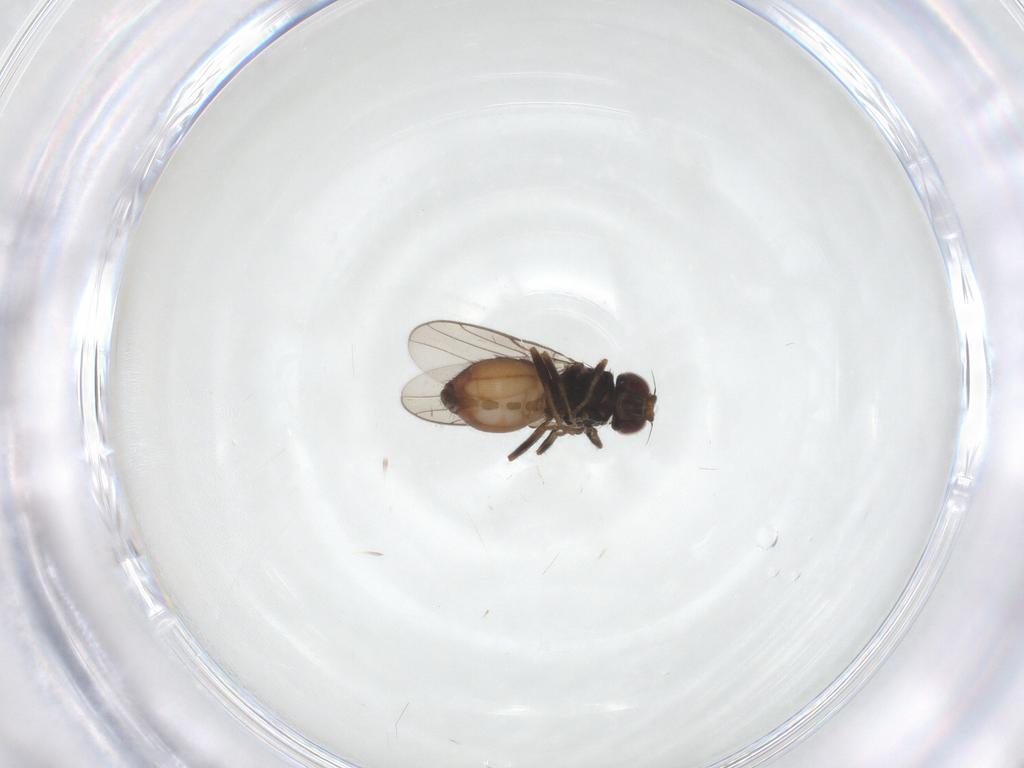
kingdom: Animalia
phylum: Arthropoda
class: Insecta
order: Diptera
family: Chloropidae
